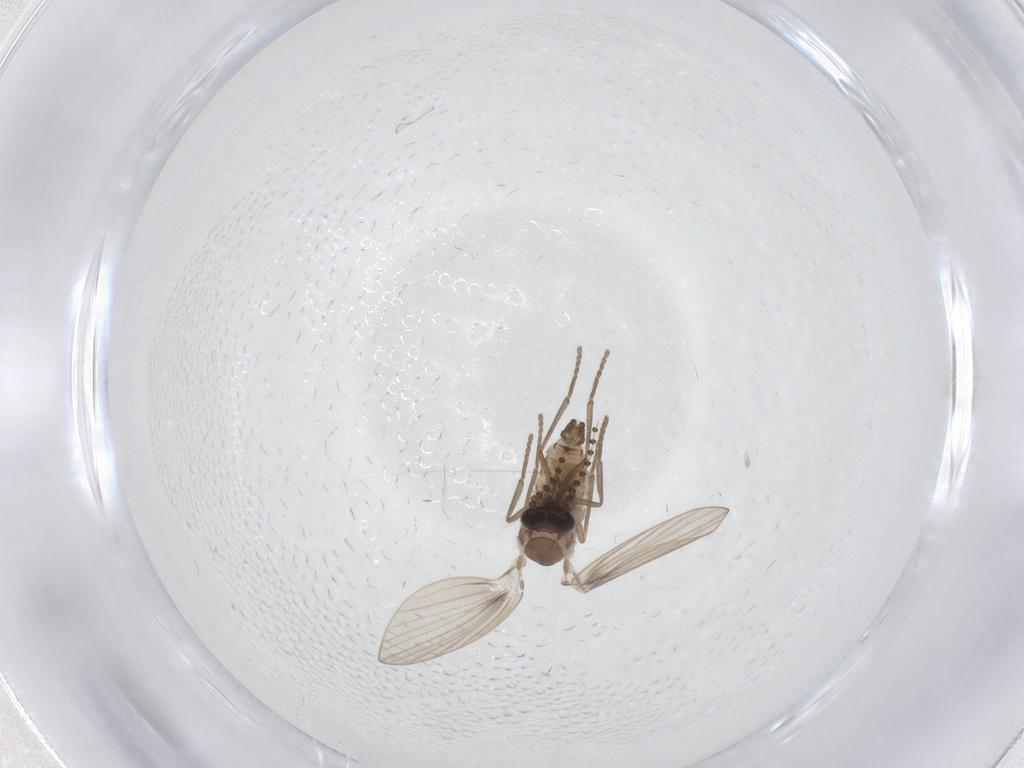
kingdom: Animalia
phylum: Arthropoda
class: Insecta
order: Diptera
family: Psychodidae
